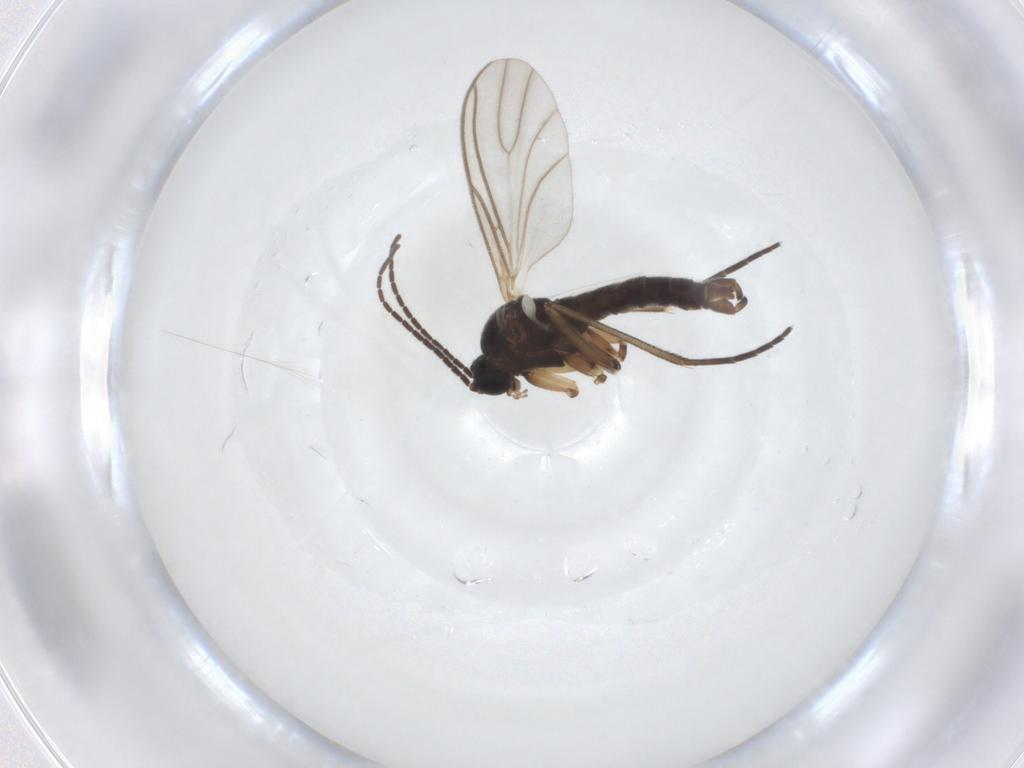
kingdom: Animalia
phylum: Arthropoda
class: Insecta
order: Diptera
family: Sciaridae
